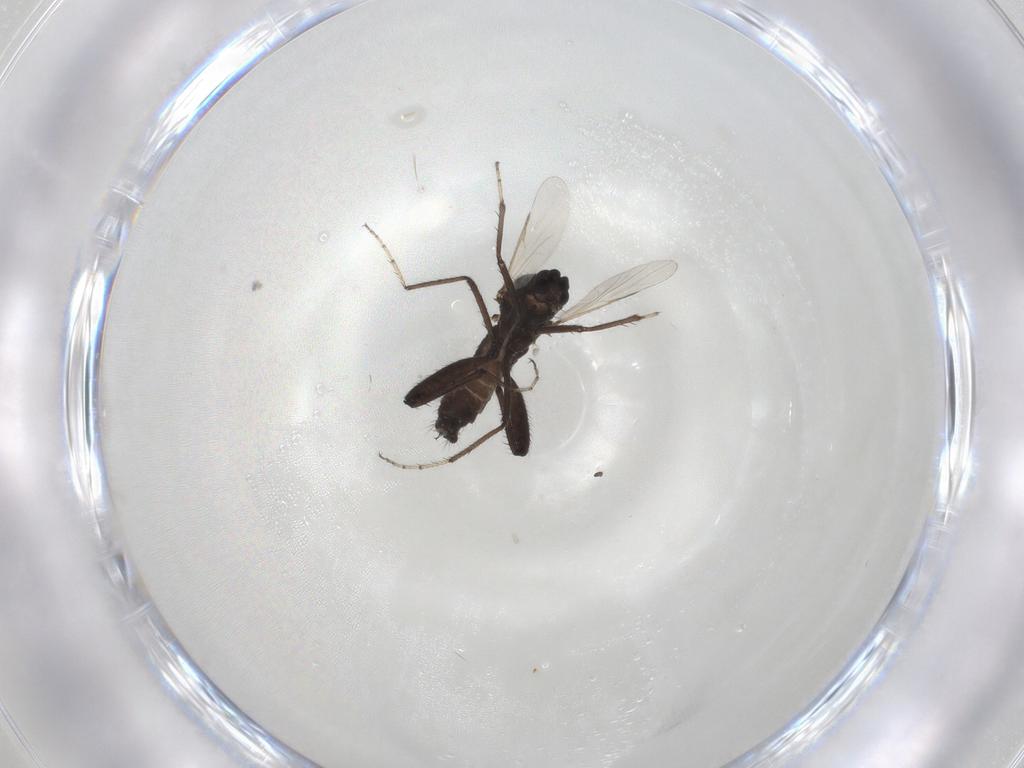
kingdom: Animalia
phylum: Arthropoda
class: Insecta
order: Diptera
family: Ceratopogonidae
